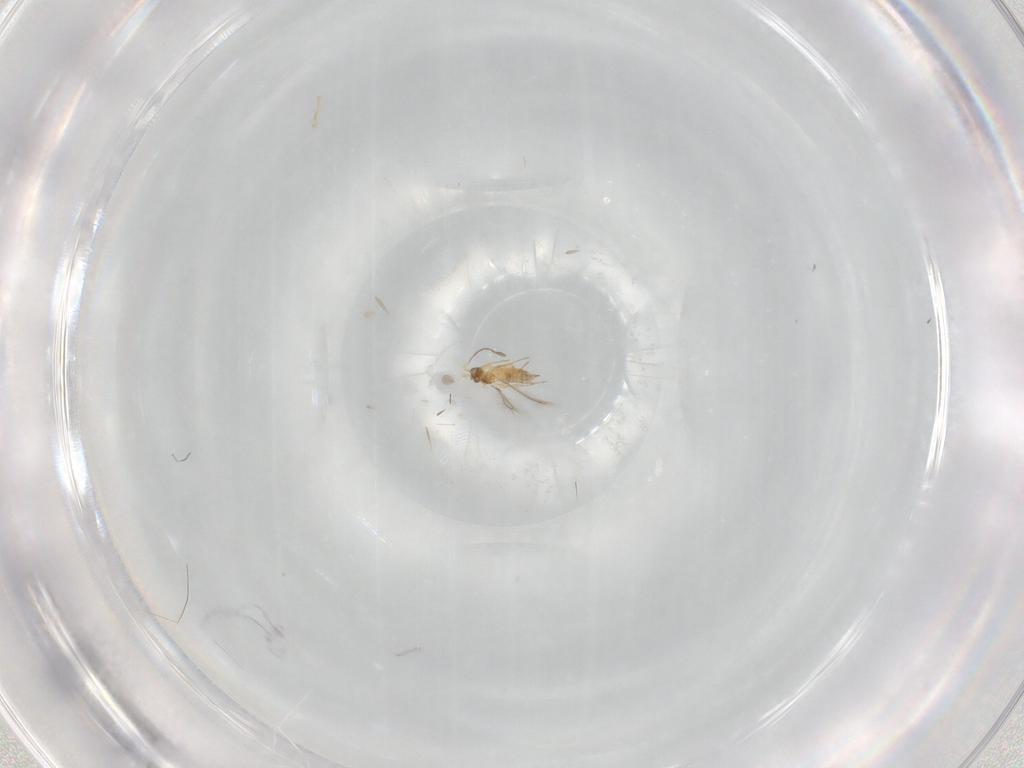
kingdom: Animalia
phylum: Arthropoda
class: Insecta
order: Hymenoptera
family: Mymaridae
